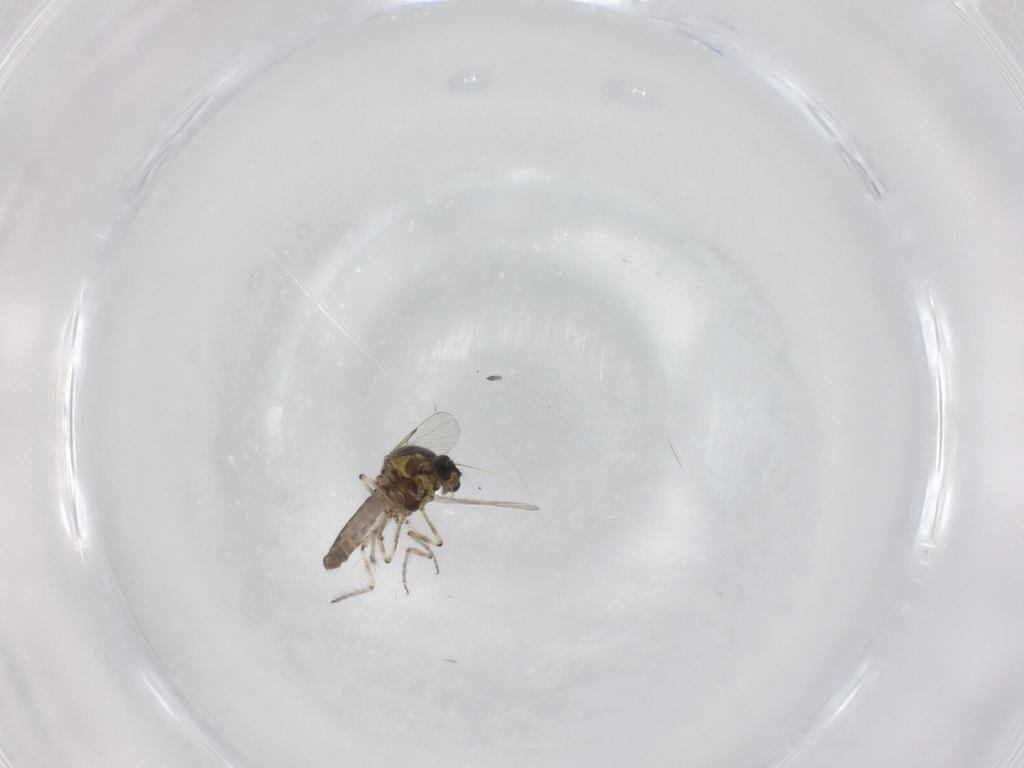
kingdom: Animalia
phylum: Arthropoda
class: Insecta
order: Diptera
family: Ceratopogonidae
